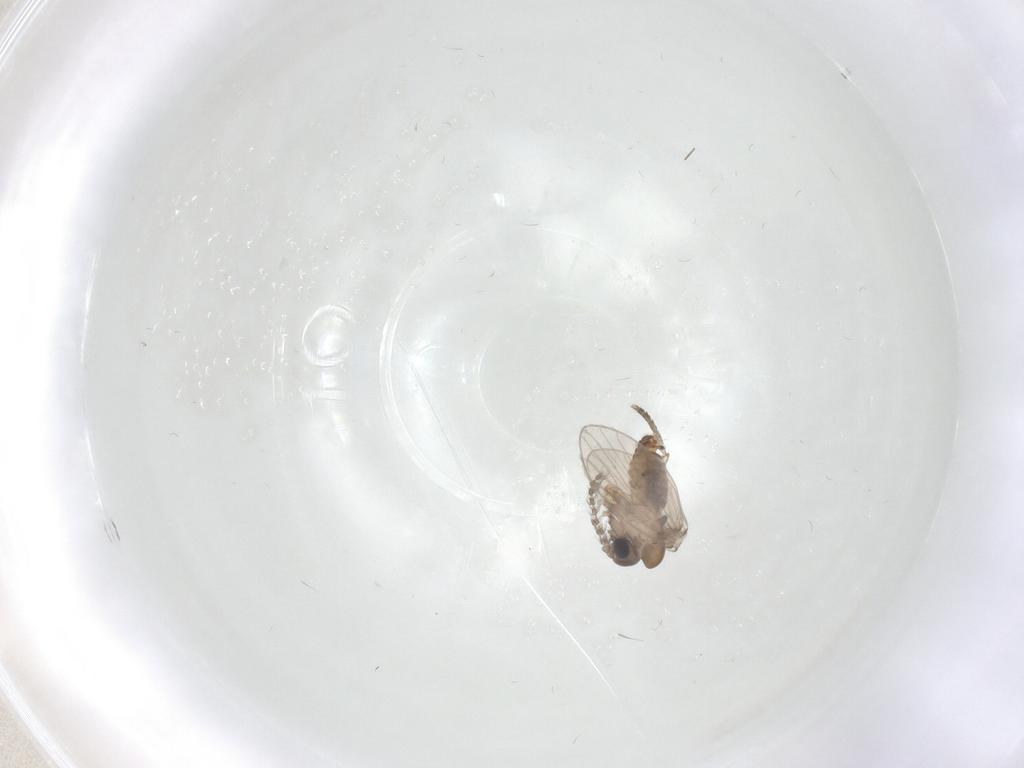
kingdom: Animalia
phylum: Arthropoda
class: Insecta
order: Diptera
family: Psychodidae
